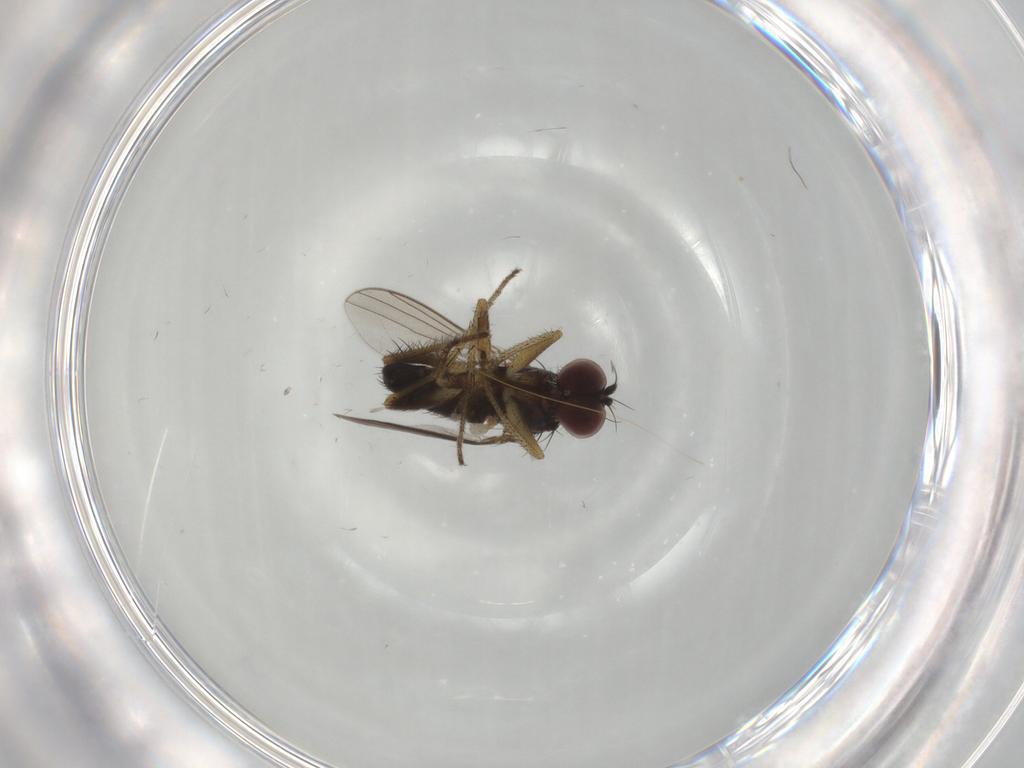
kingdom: Animalia
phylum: Arthropoda
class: Insecta
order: Diptera
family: Dolichopodidae
